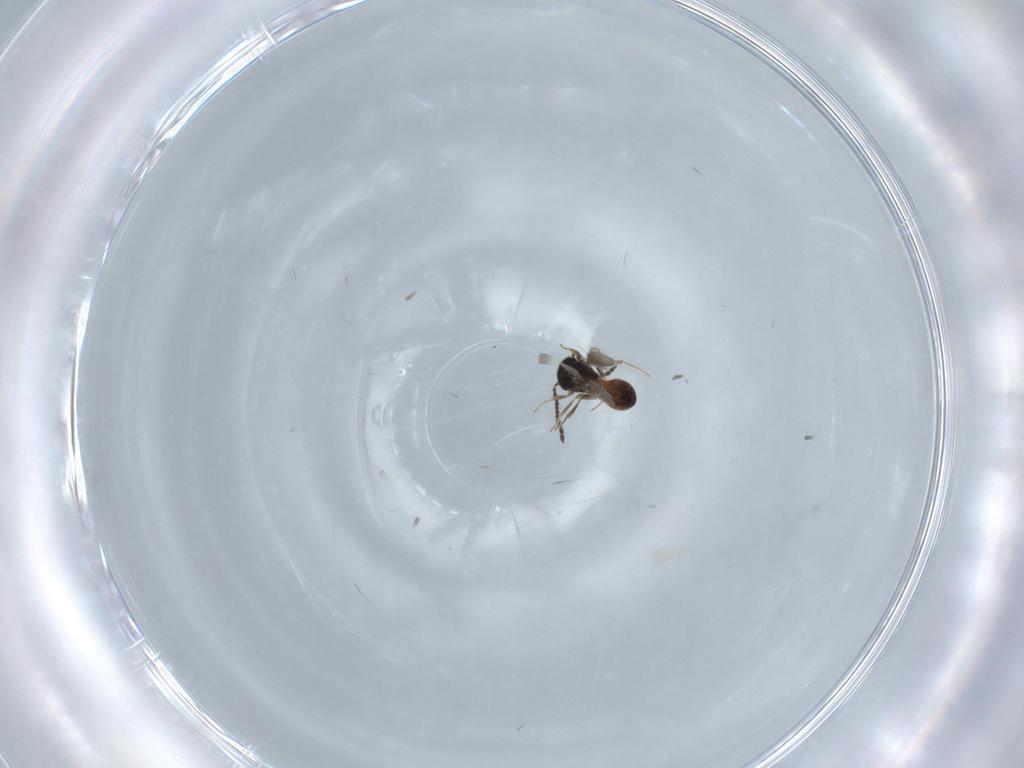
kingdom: Animalia
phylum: Arthropoda
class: Insecta
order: Hymenoptera
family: Scelionidae
